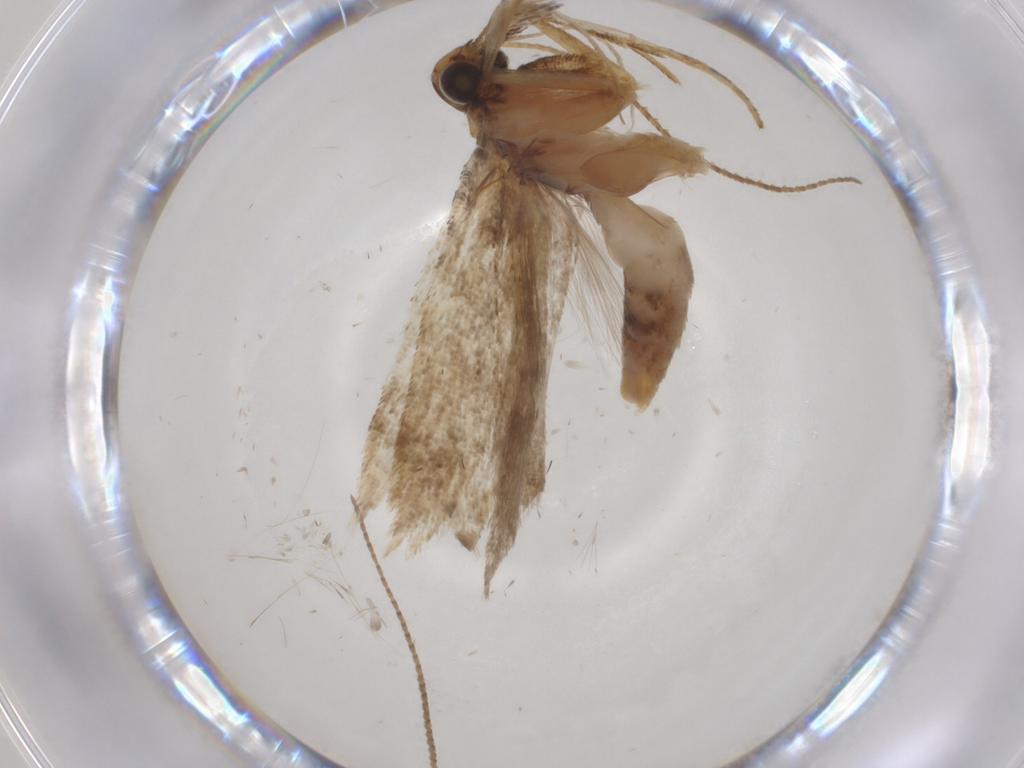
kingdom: Animalia
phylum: Arthropoda
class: Insecta
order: Lepidoptera
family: Gelechiidae
